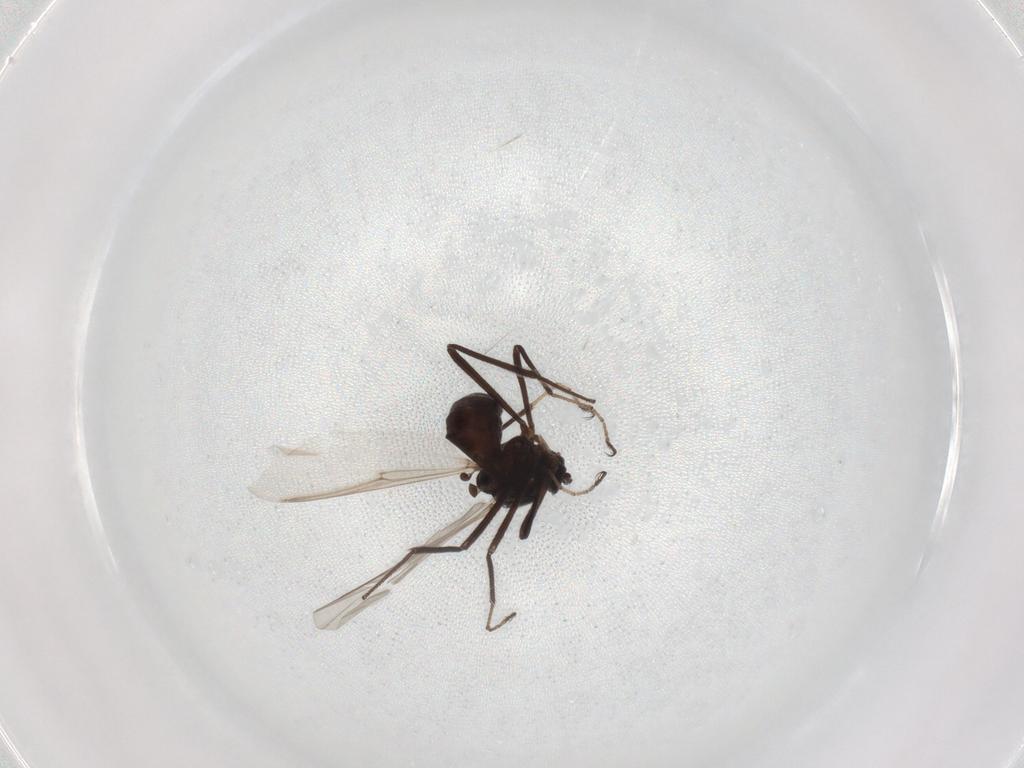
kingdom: Animalia
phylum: Arthropoda
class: Insecta
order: Diptera
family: Ceratopogonidae
